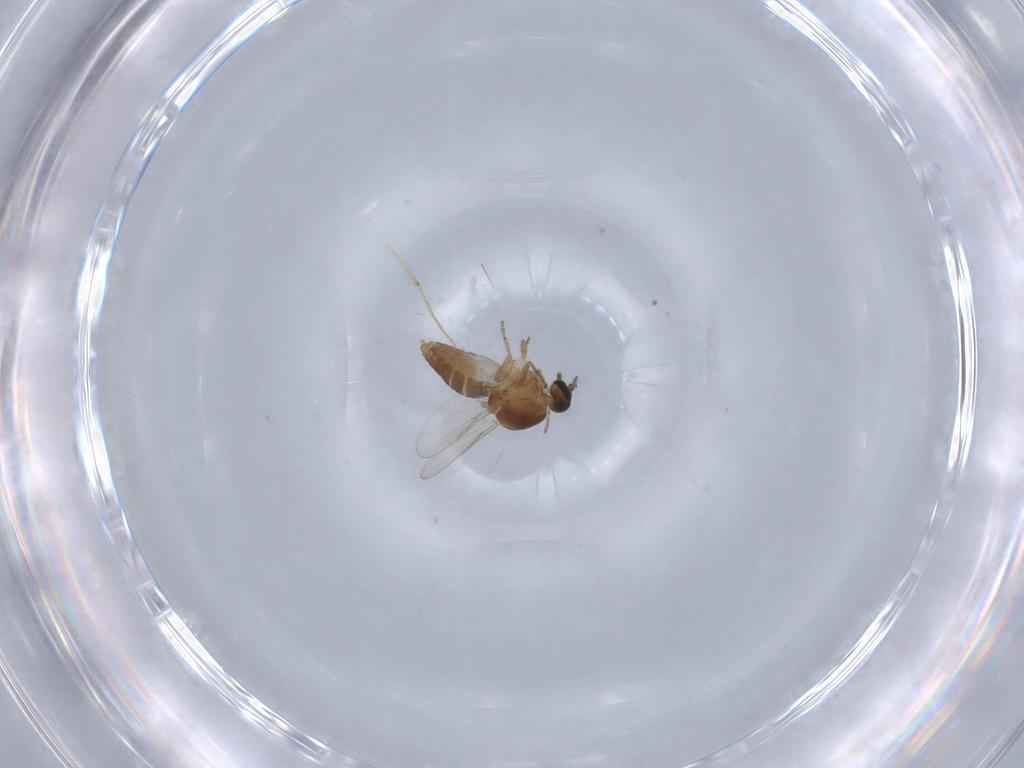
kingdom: Animalia
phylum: Arthropoda
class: Insecta
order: Diptera
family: Ceratopogonidae
